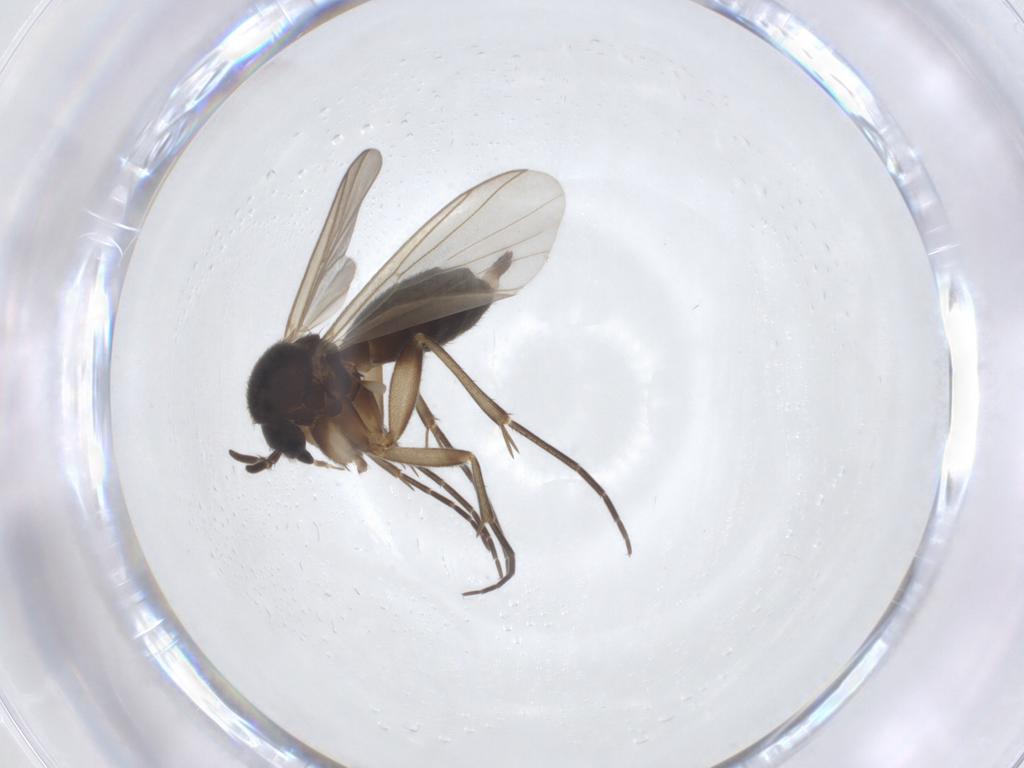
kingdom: Animalia
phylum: Arthropoda
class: Insecta
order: Diptera
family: Mycetophilidae
